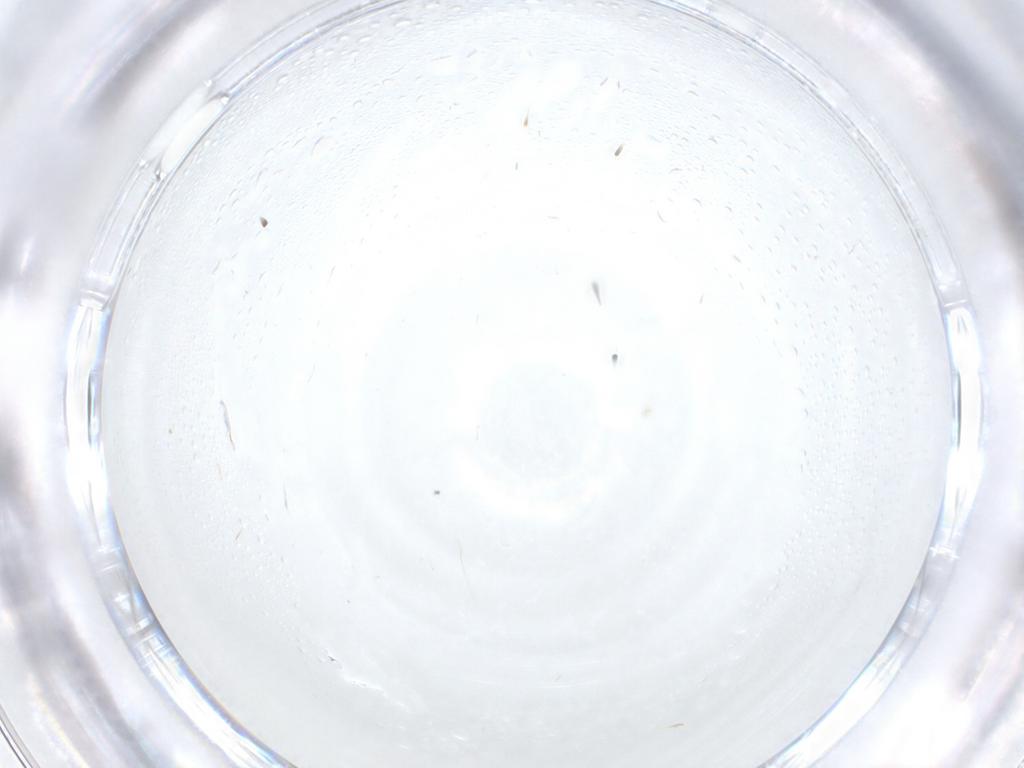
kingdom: Animalia
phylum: Arthropoda
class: Insecta
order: Hymenoptera
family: Scelionidae
